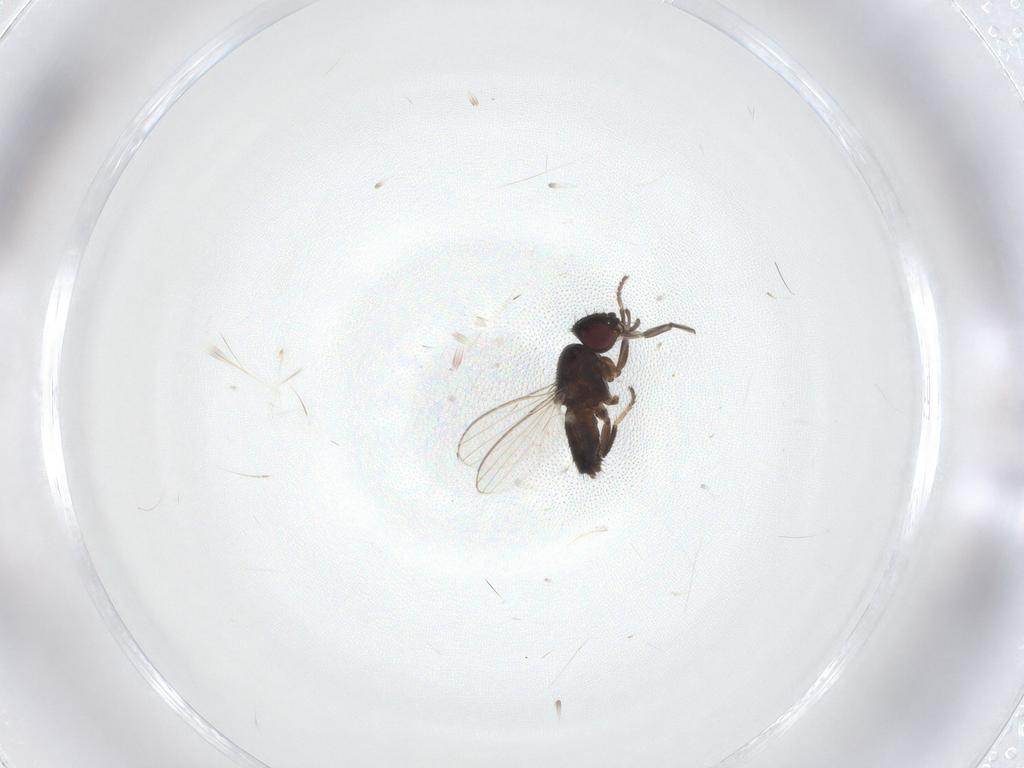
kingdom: Animalia
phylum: Arthropoda
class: Insecta
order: Diptera
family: Milichiidae
